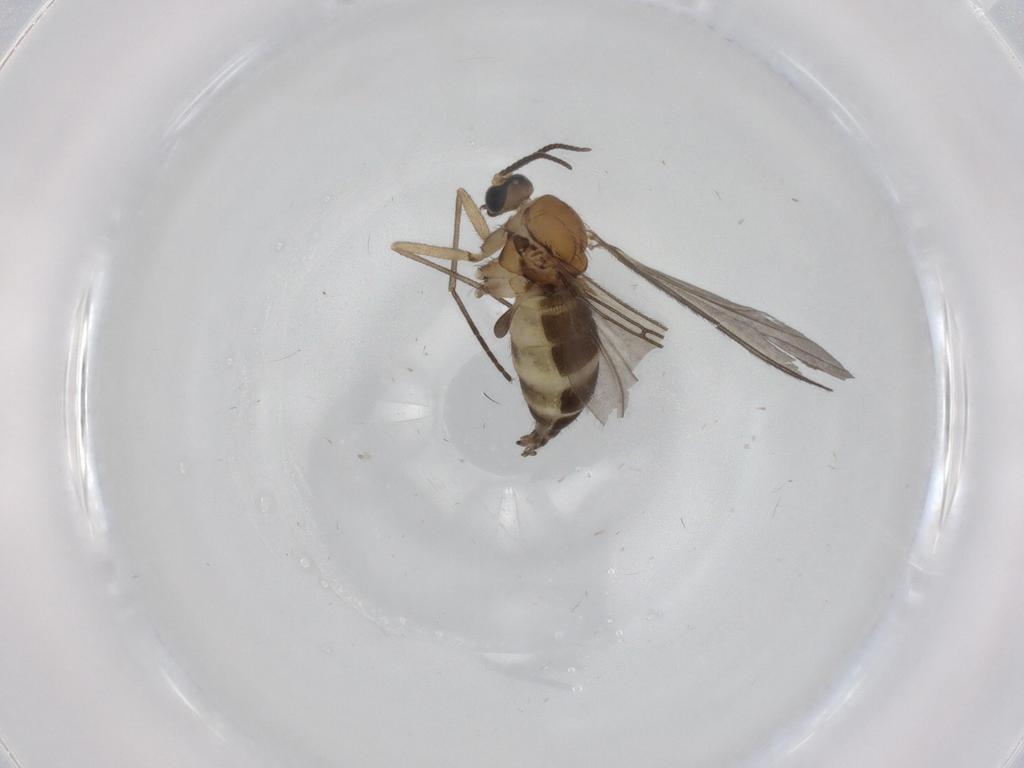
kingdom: Animalia
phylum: Arthropoda
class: Insecta
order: Diptera
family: Sciaridae
